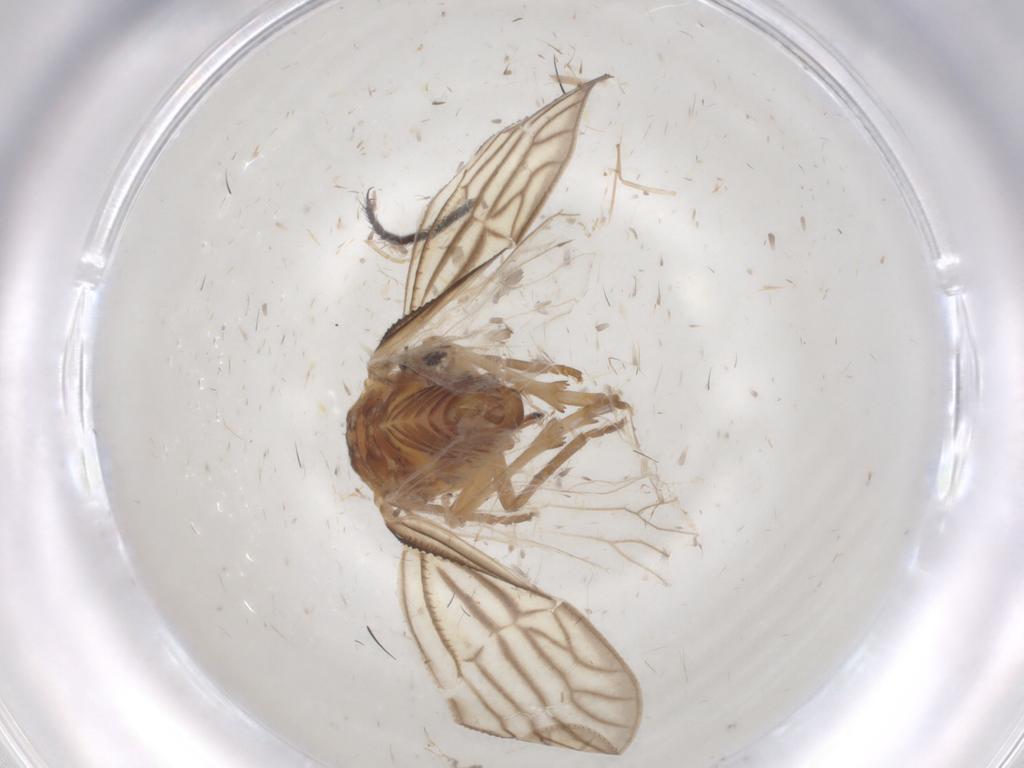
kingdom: Animalia
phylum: Arthropoda
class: Insecta
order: Hemiptera
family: Meenoplidae
